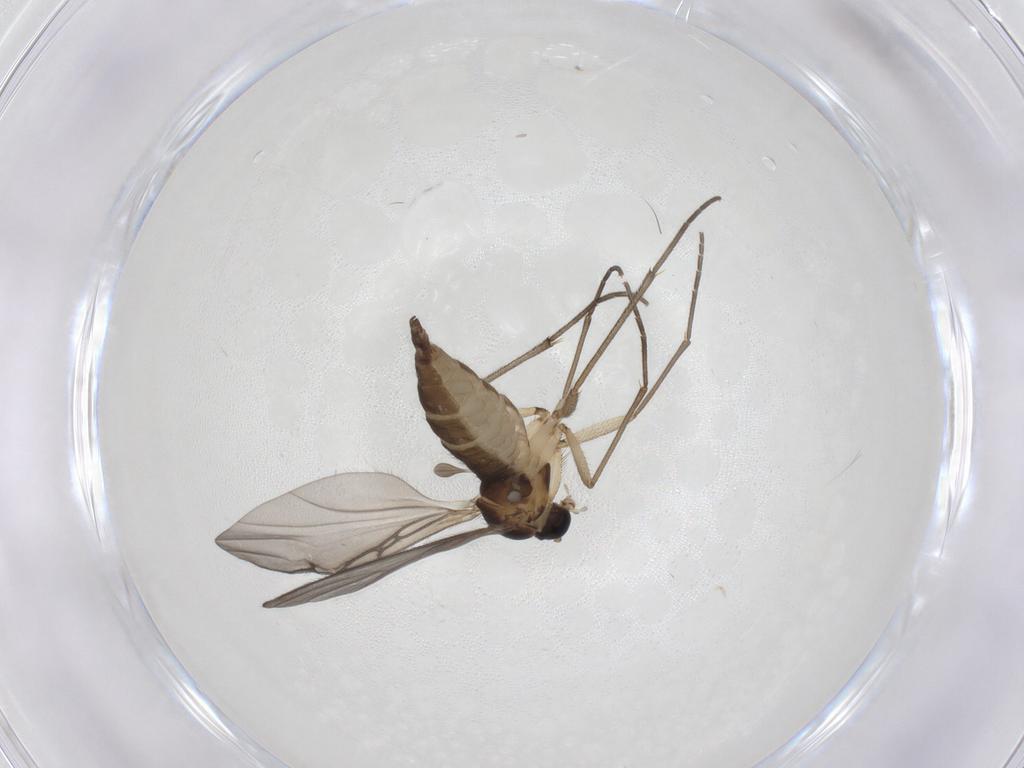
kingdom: Animalia
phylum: Arthropoda
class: Insecta
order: Diptera
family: Sciaridae
